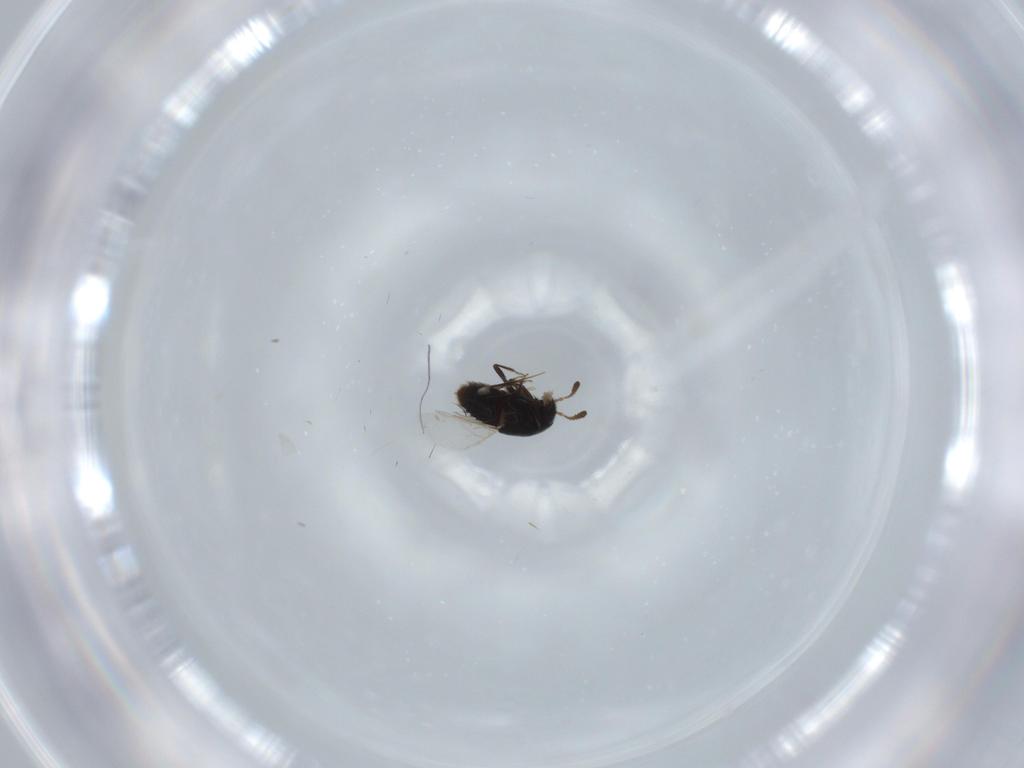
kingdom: Animalia
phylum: Arthropoda
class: Insecta
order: Coleoptera
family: Staphylinidae
